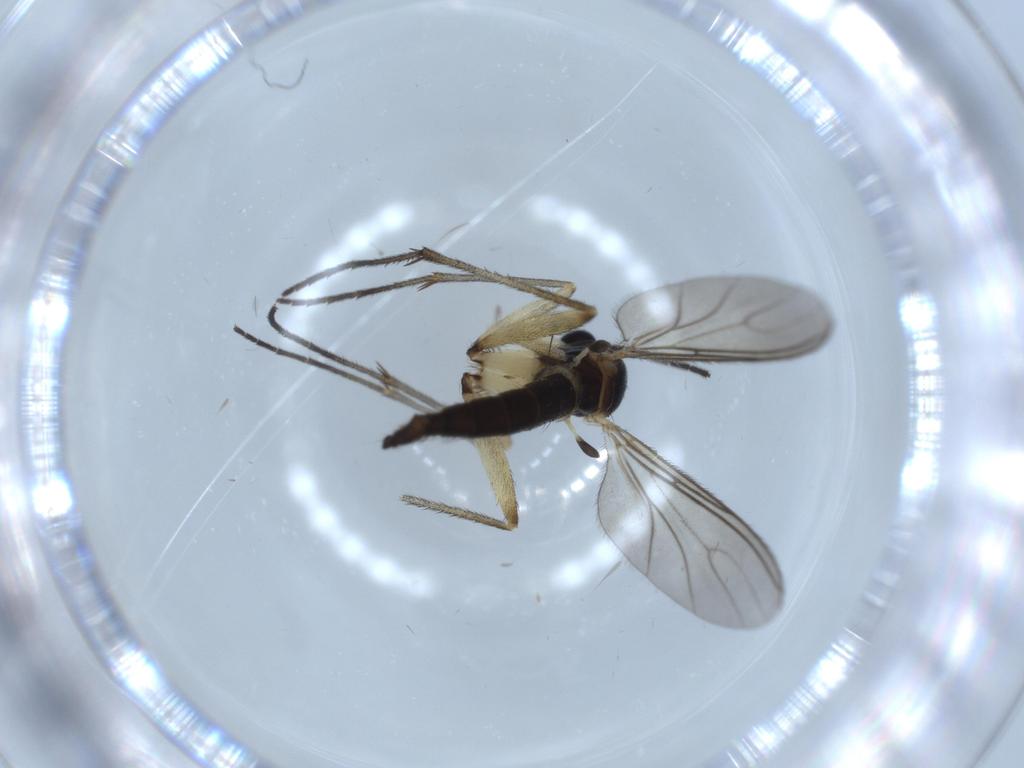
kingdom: Animalia
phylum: Arthropoda
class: Insecta
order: Diptera
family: Sciaridae
